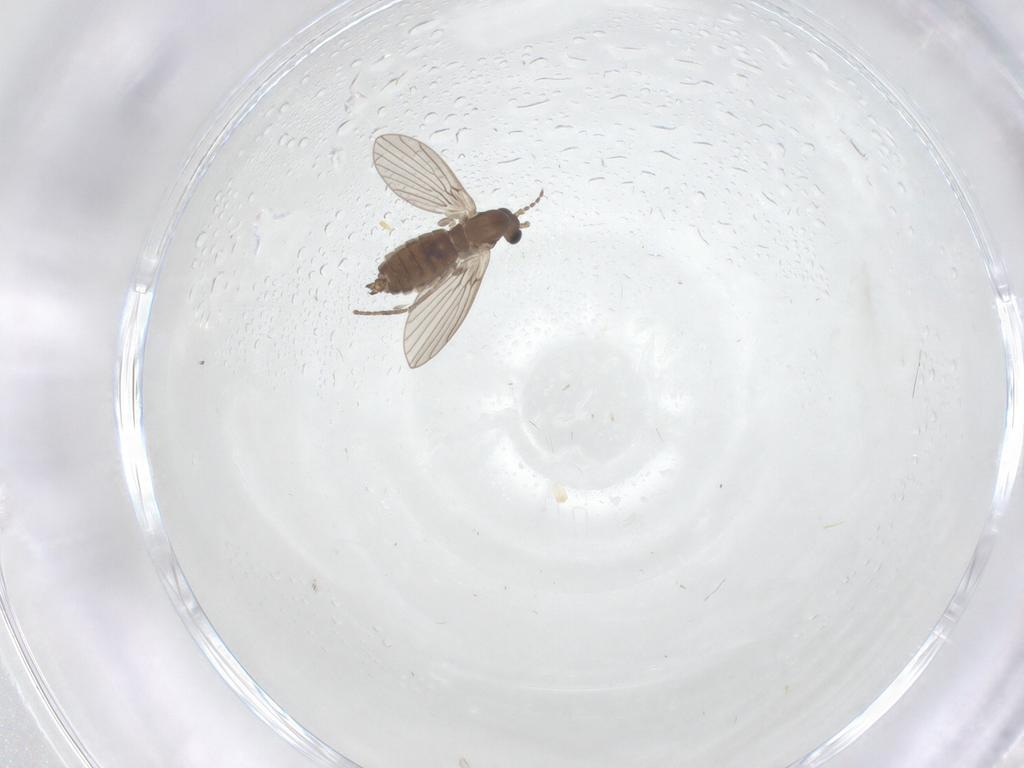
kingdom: Animalia
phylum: Arthropoda
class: Insecta
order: Diptera
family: Psychodidae
